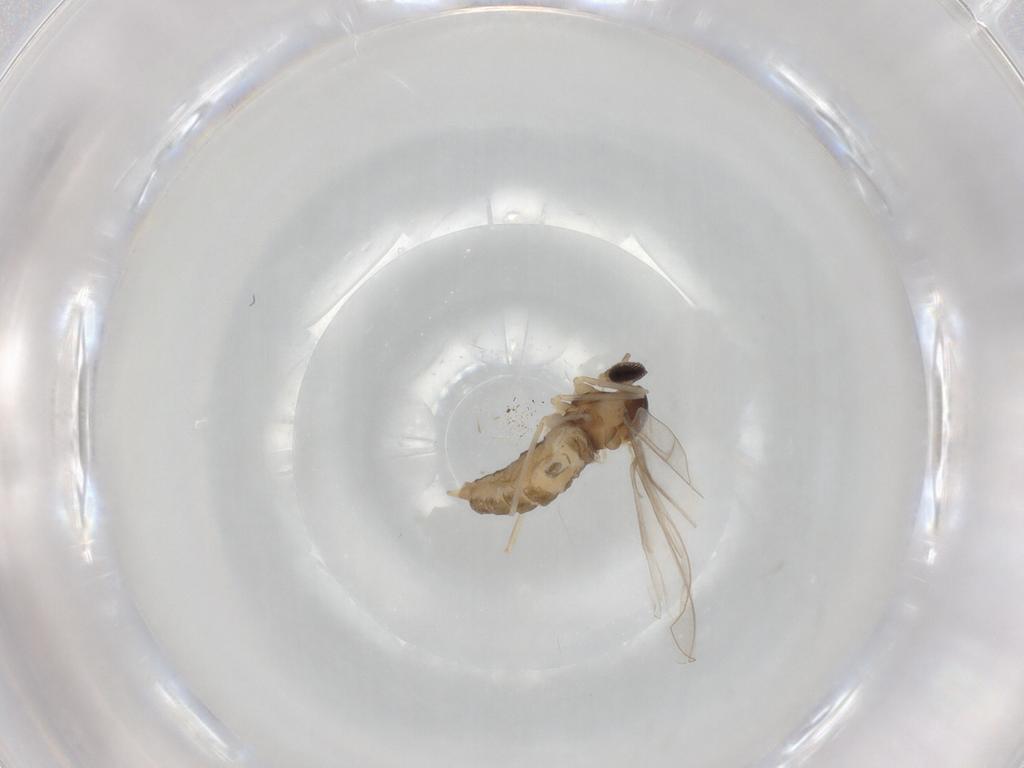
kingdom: Animalia
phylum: Arthropoda
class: Insecta
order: Diptera
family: Cecidomyiidae
